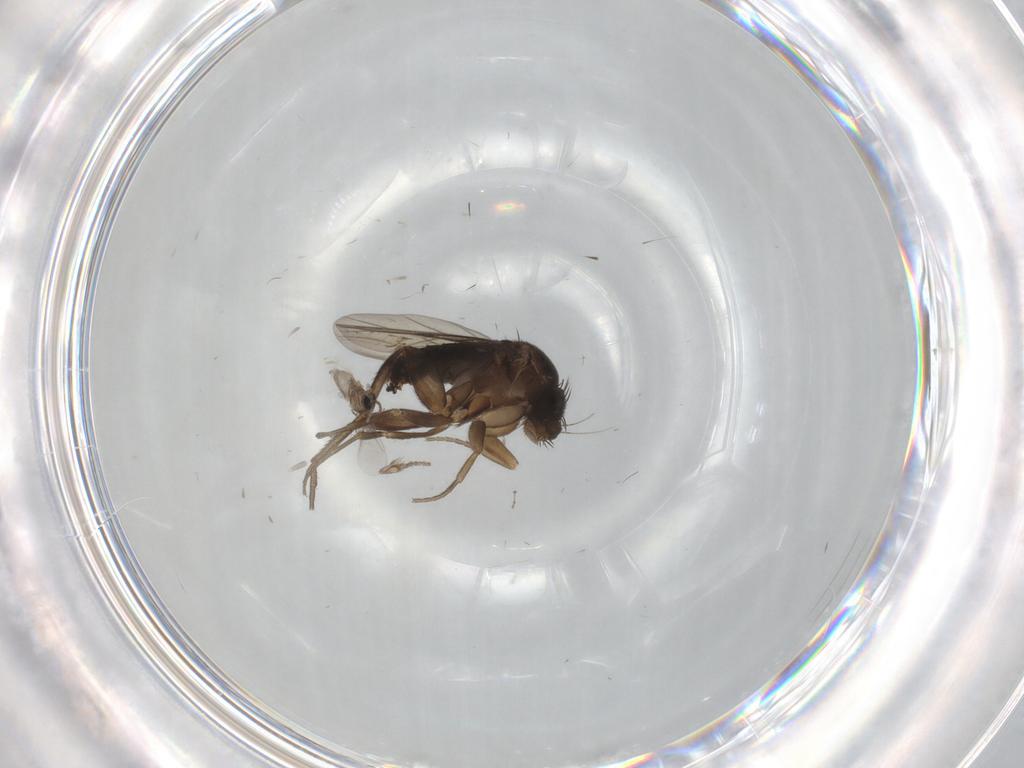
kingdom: Animalia
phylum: Arthropoda
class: Insecta
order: Diptera
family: Phoridae
